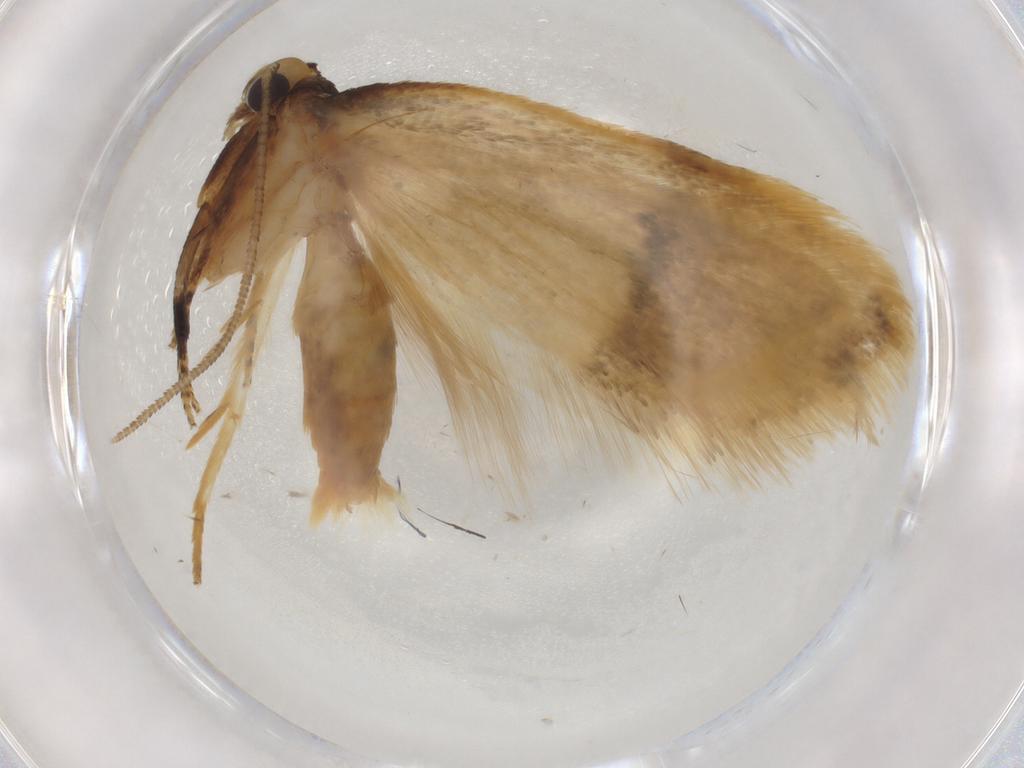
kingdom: Animalia
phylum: Arthropoda
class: Insecta
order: Lepidoptera
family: Depressariidae
